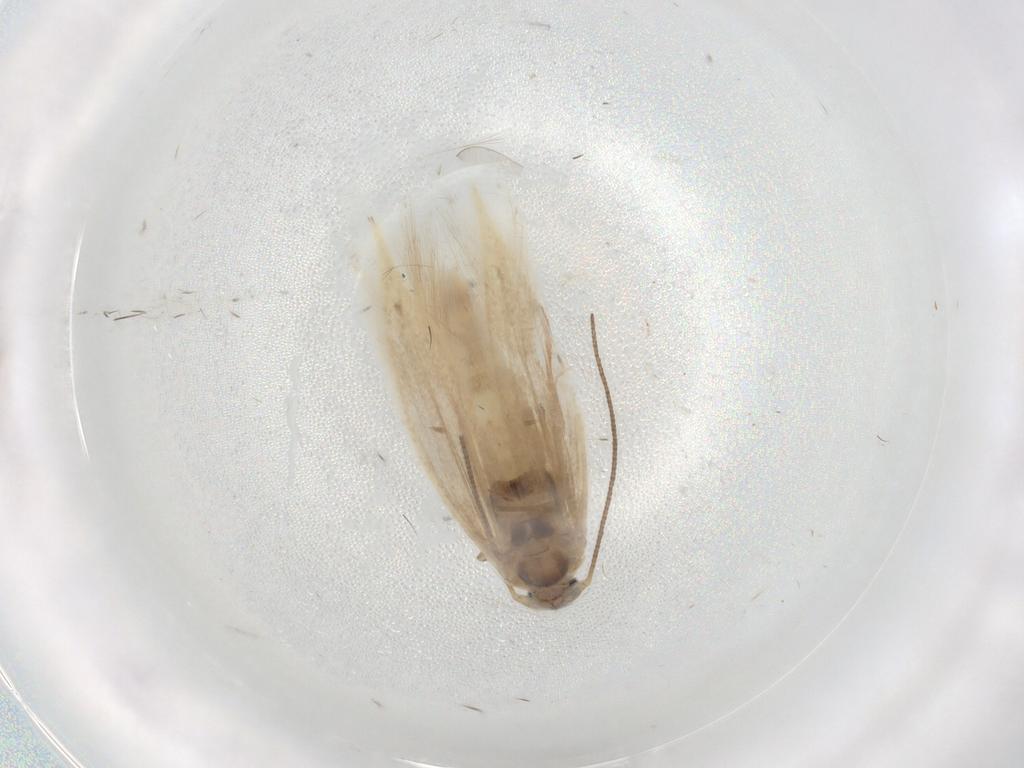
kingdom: Animalia
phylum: Arthropoda
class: Insecta
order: Lepidoptera
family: Bucculatricidae
